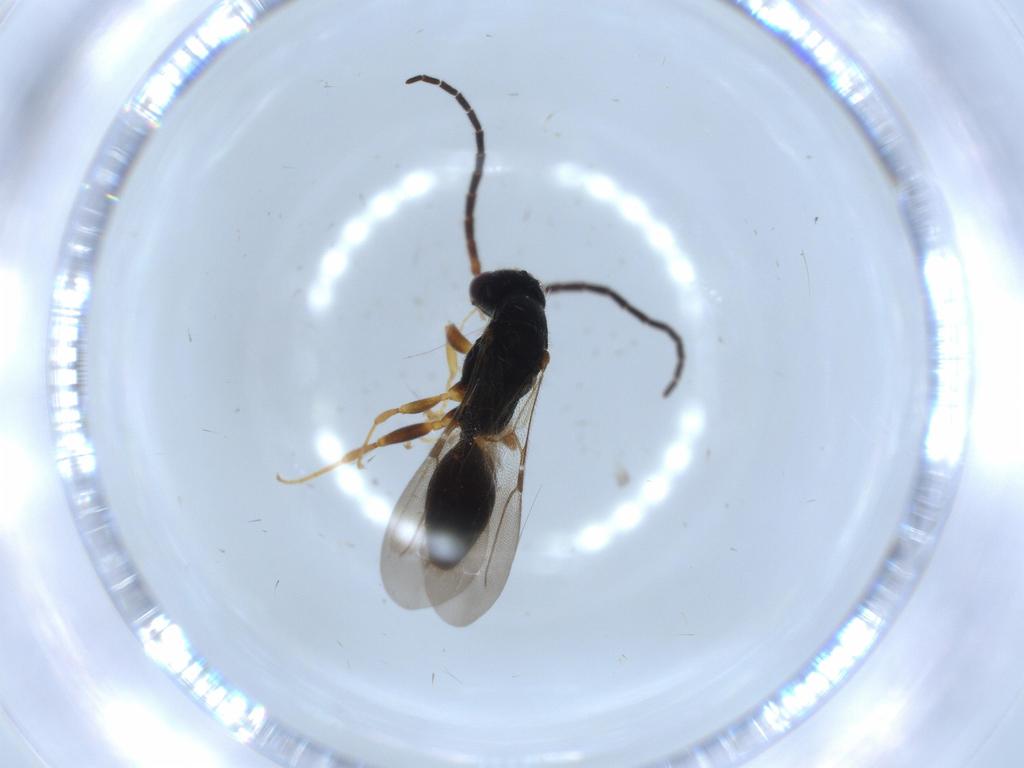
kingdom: Animalia
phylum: Arthropoda
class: Insecta
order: Hymenoptera
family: Bethylidae
